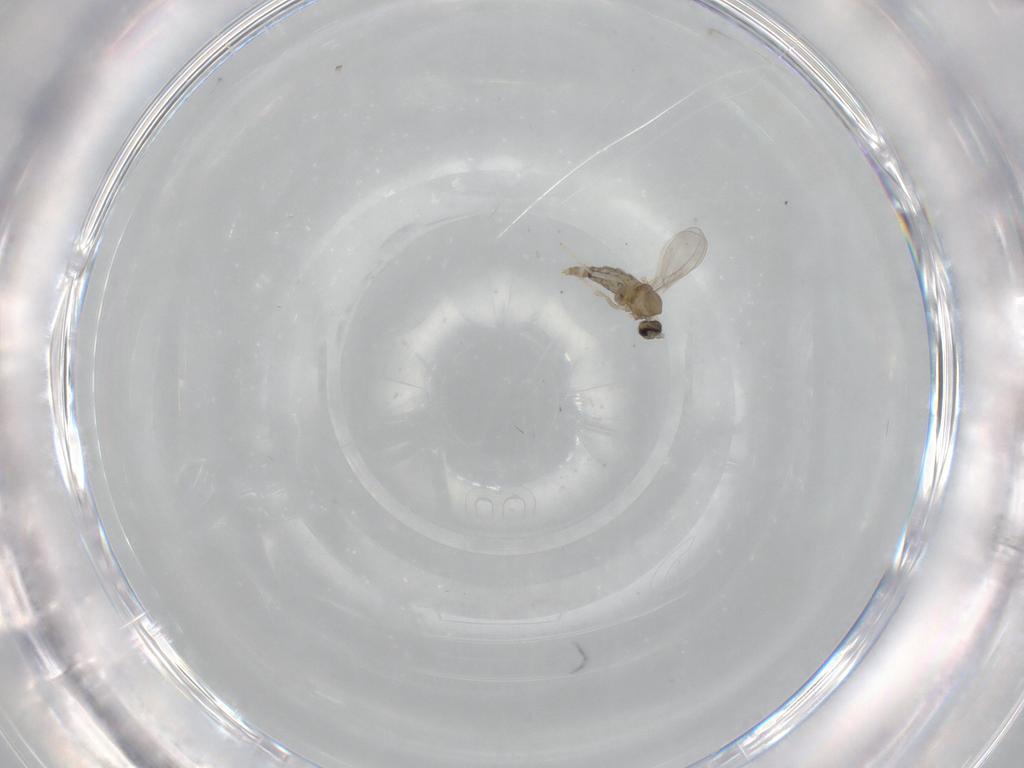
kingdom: Animalia
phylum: Arthropoda
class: Insecta
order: Diptera
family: Cecidomyiidae
